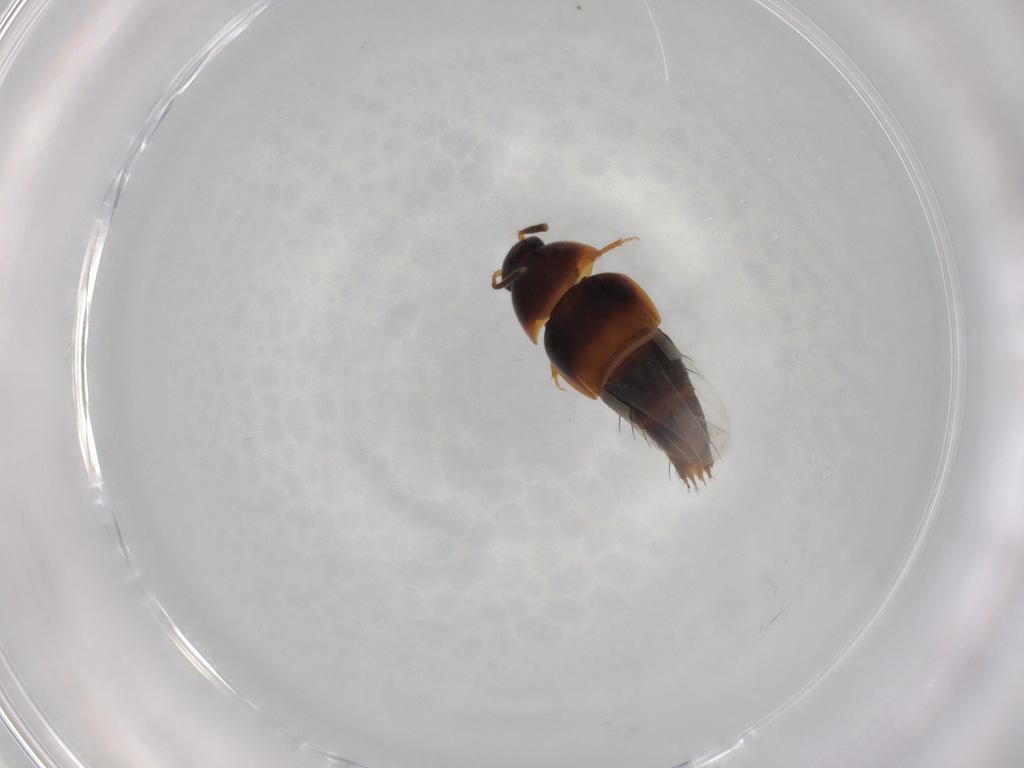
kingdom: Animalia
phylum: Arthropoda
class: Insecta
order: Coleoptera
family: Staphylinidae
